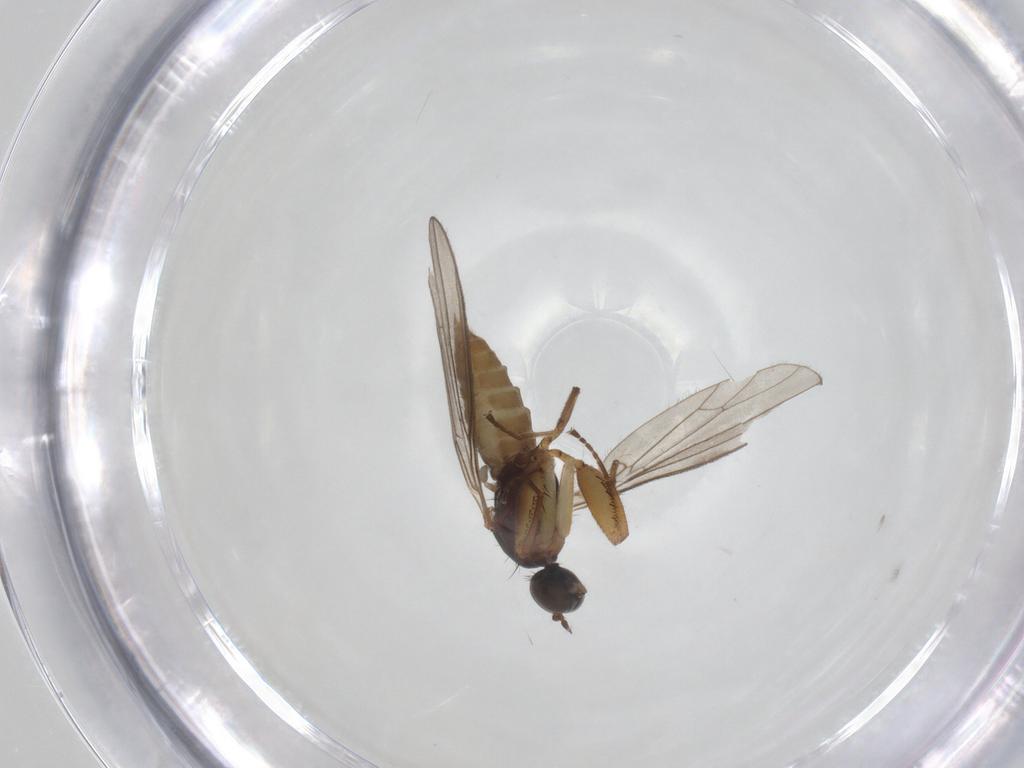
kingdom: Animalia
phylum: Arthropoda
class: Insecta
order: Diptera
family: Empididae
